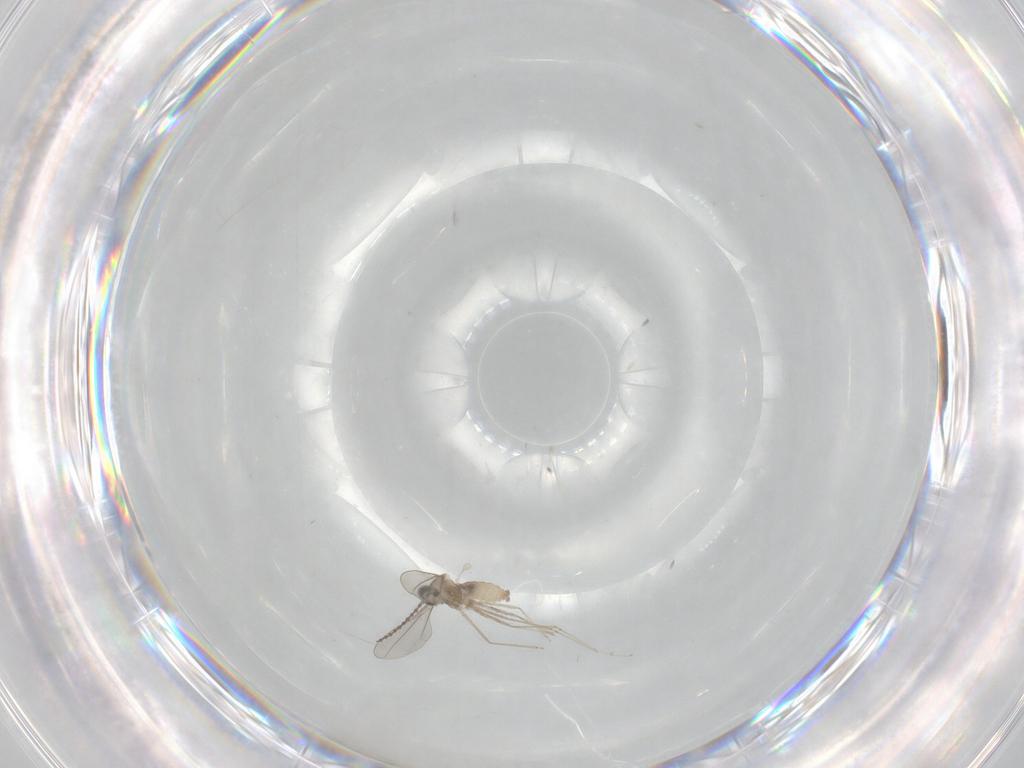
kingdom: Animalia
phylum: Arthropoda
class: Insecta
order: Diptera
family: Cecidomyiidae
